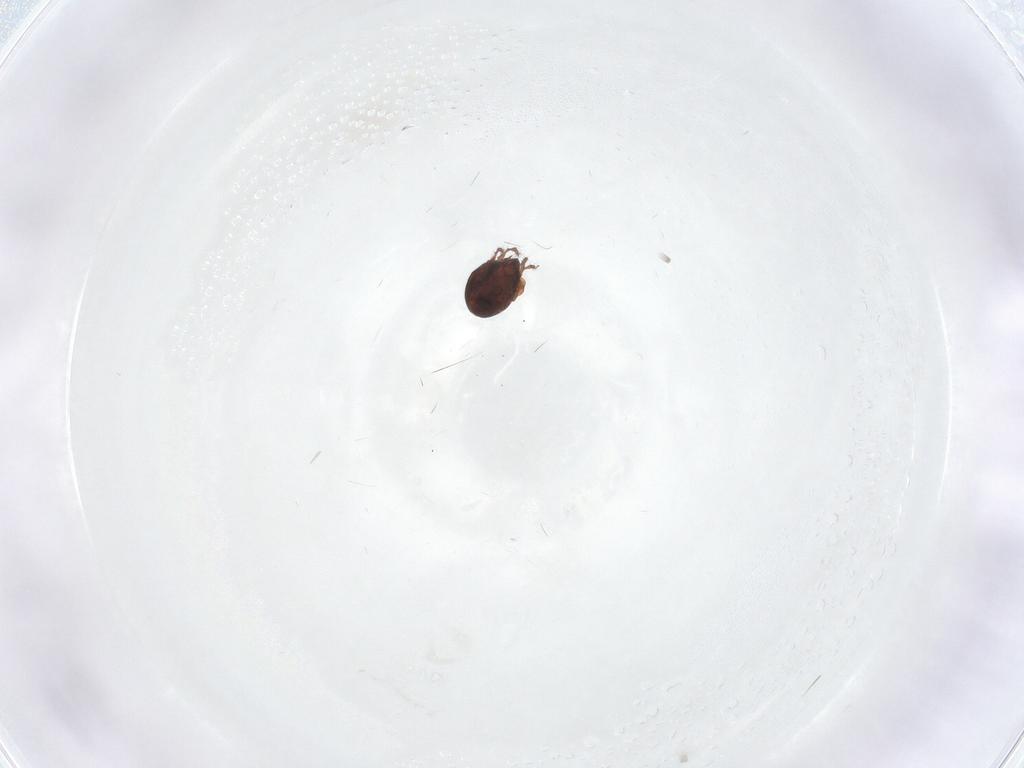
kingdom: Animalia
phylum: Arthropoda
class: Arachnida
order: Sarcoptiformes
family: Ceratozetidae
